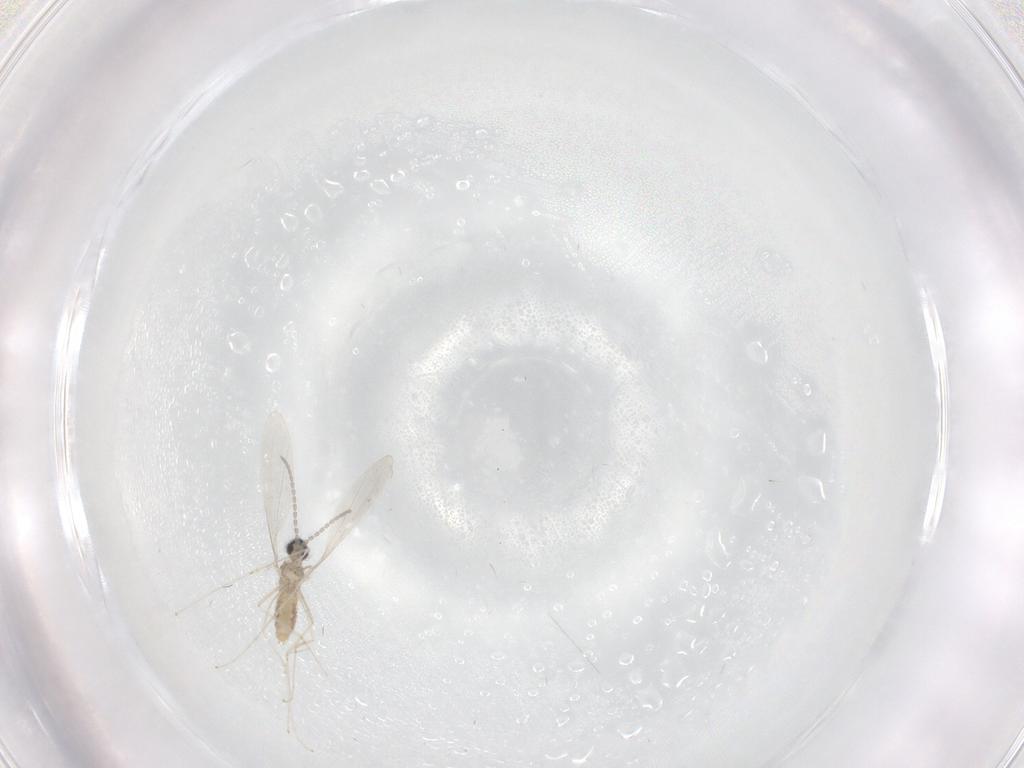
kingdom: Animalia
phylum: Arthropoda
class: Insecta
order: Diptera
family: Cecidomyiidae
